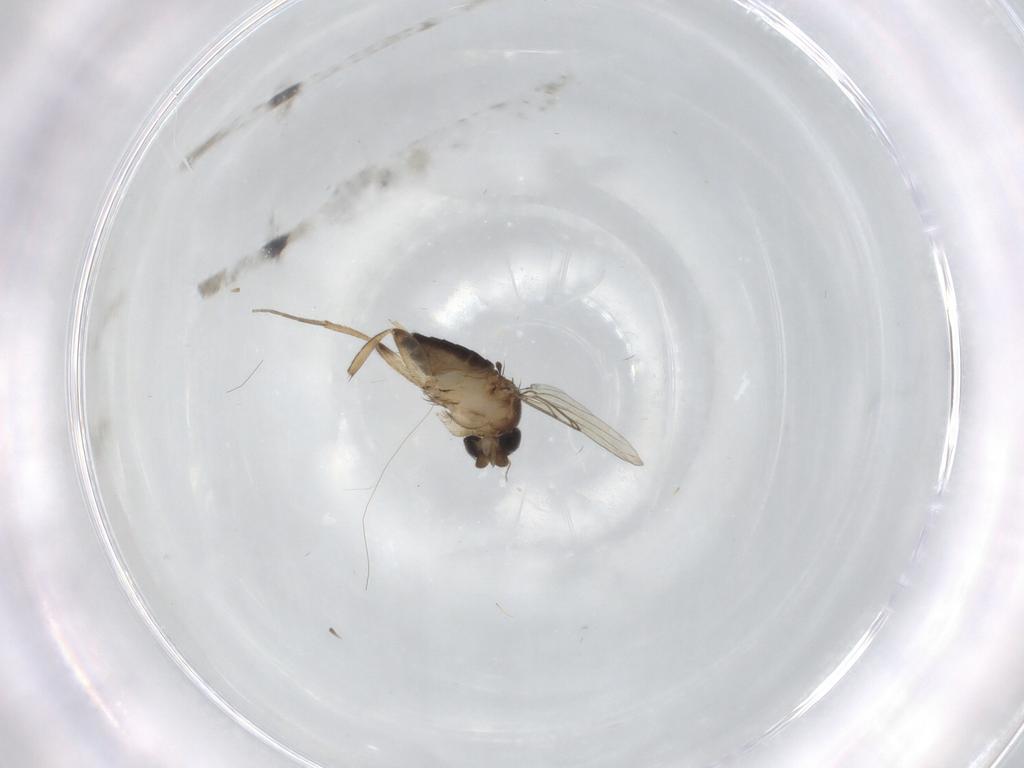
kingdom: Animalia
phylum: Arthropoda
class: Insecta
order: Diptera
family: Phoridae
